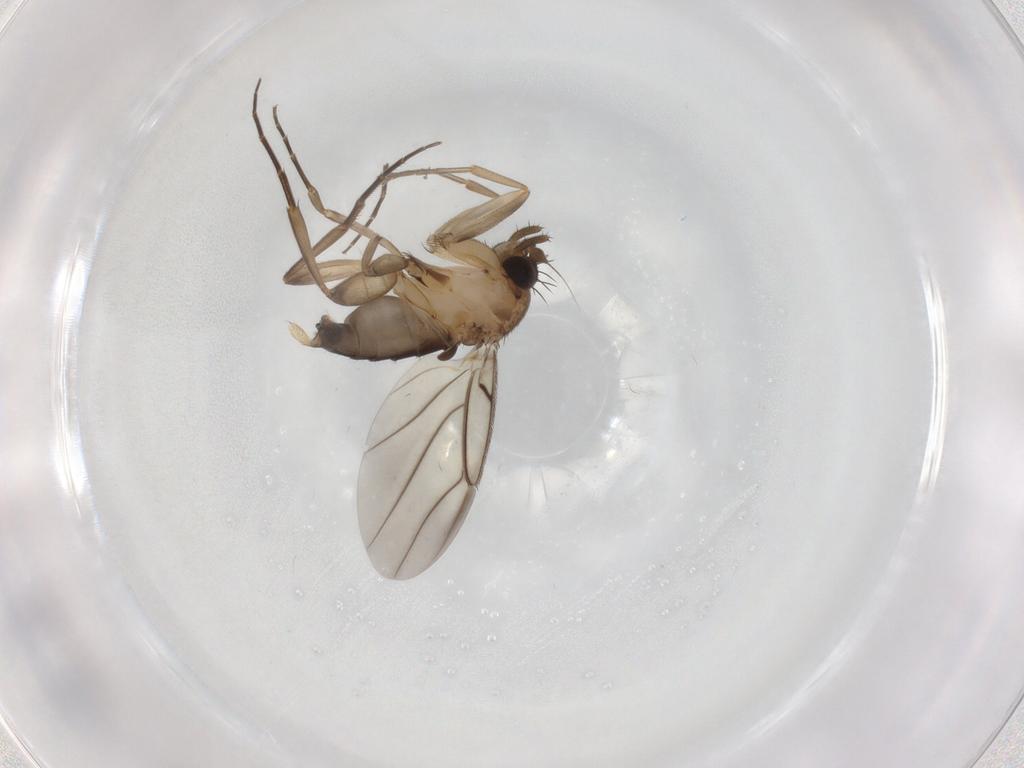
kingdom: Animalia
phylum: Arthropoda
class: Insecta
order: Diptera
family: Phoridae
